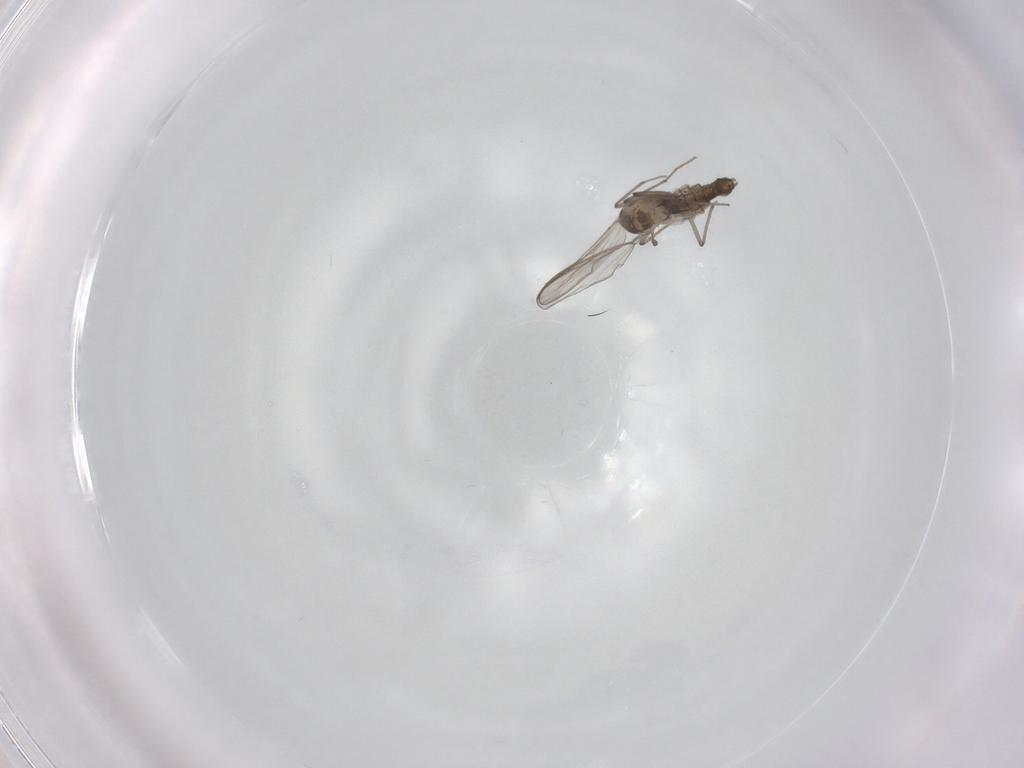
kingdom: Animalia
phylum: Arthropoda
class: Insecta
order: Diptera
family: Chironomidae
